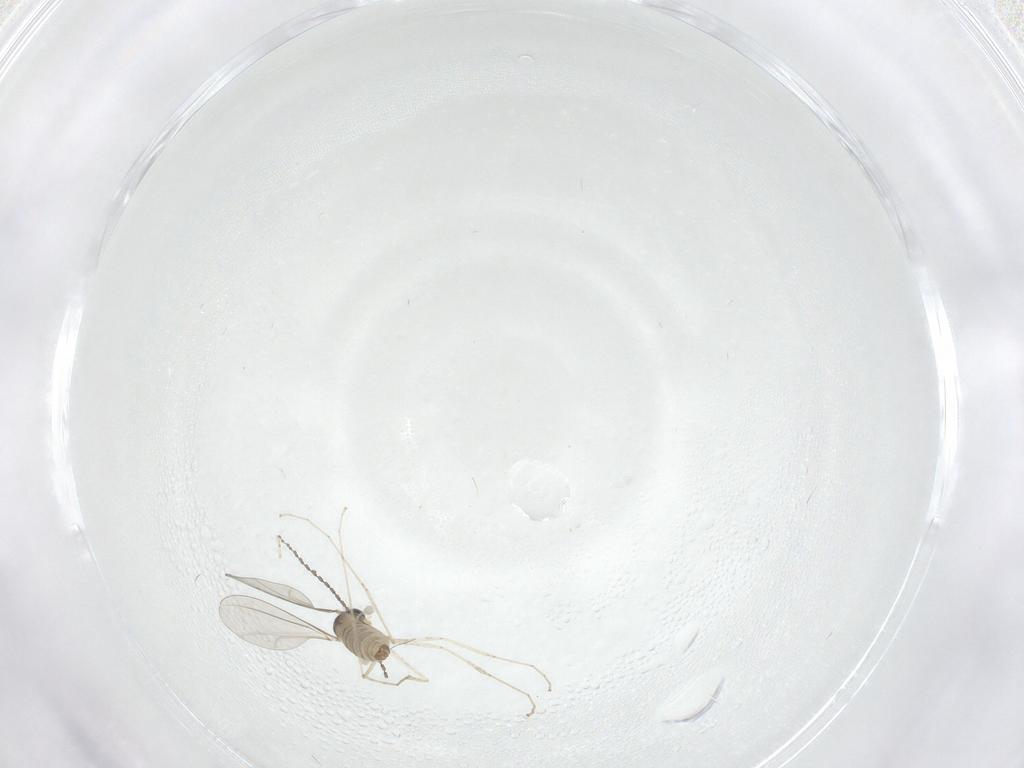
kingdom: Animalia
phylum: Arthropoda
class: Insecta
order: Diptera
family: Cecidomyiidae
